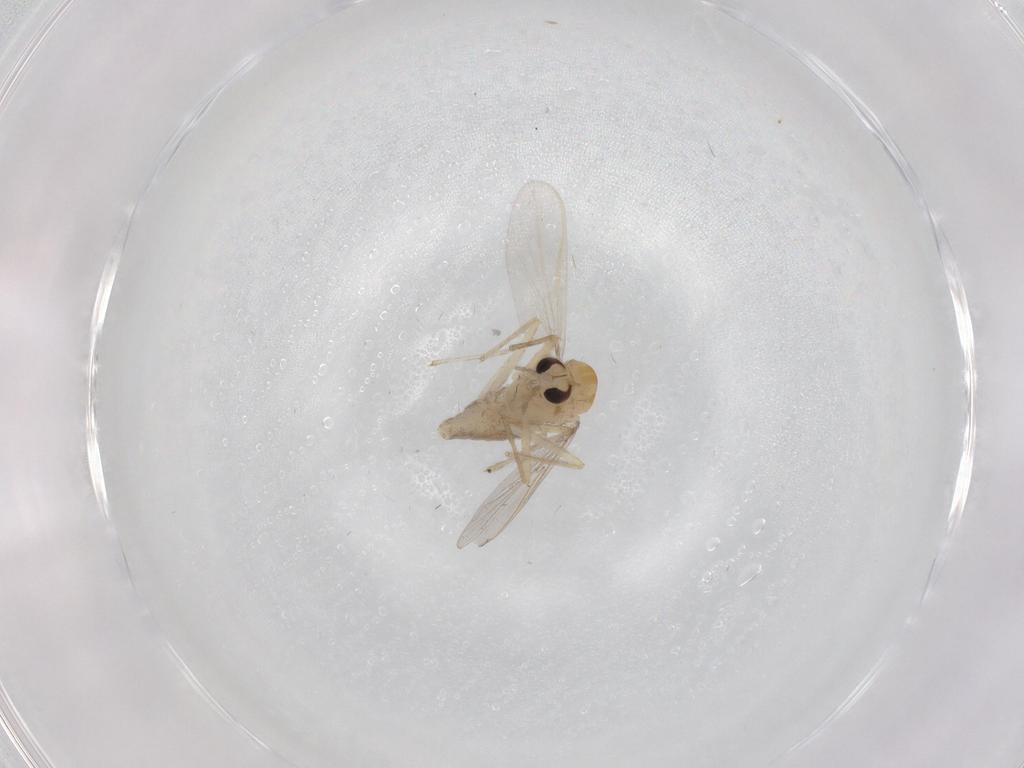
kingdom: Animalia
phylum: Arthropoda
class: Insecta
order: Diptera
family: Chironomidae
